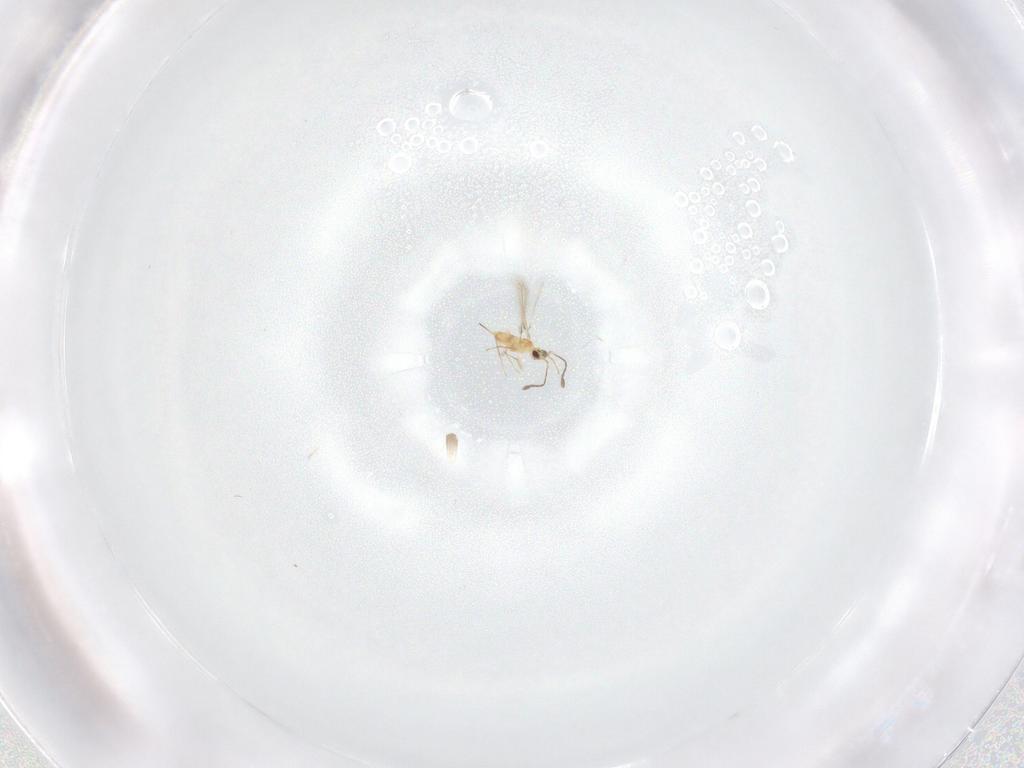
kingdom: Animalia
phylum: Arthropoda
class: Insecta
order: Hymenoptera
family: Mymaridae
